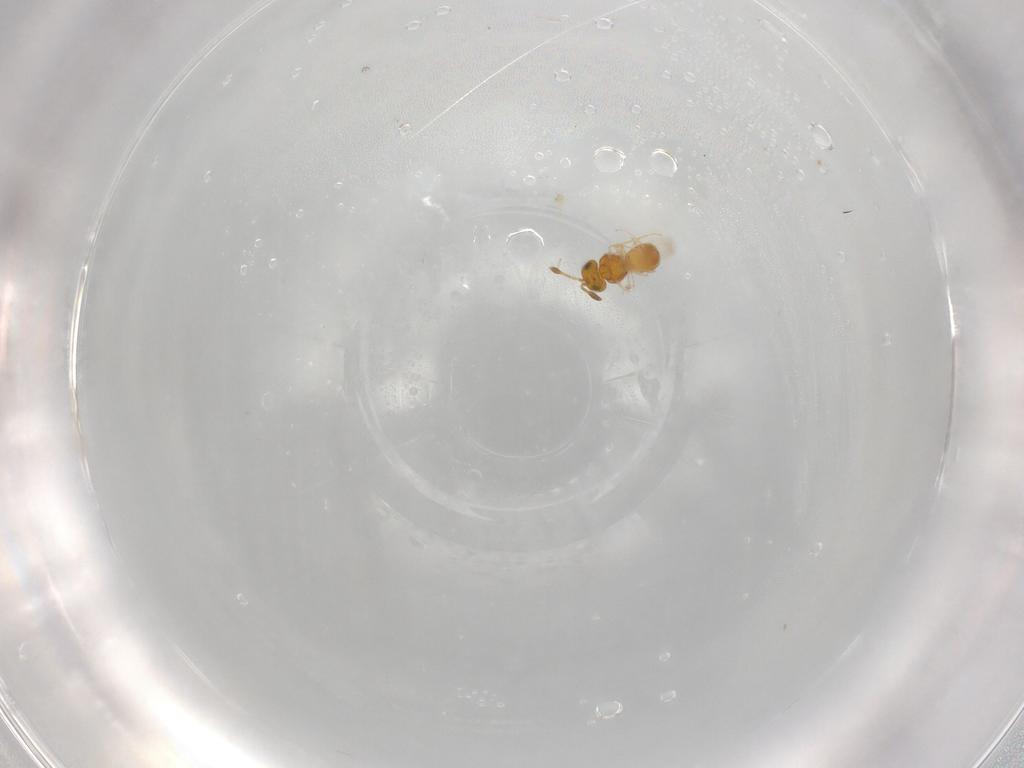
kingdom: Animalia
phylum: Arthropoda
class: Insecta
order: Hymenoptera
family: Scelionidae
